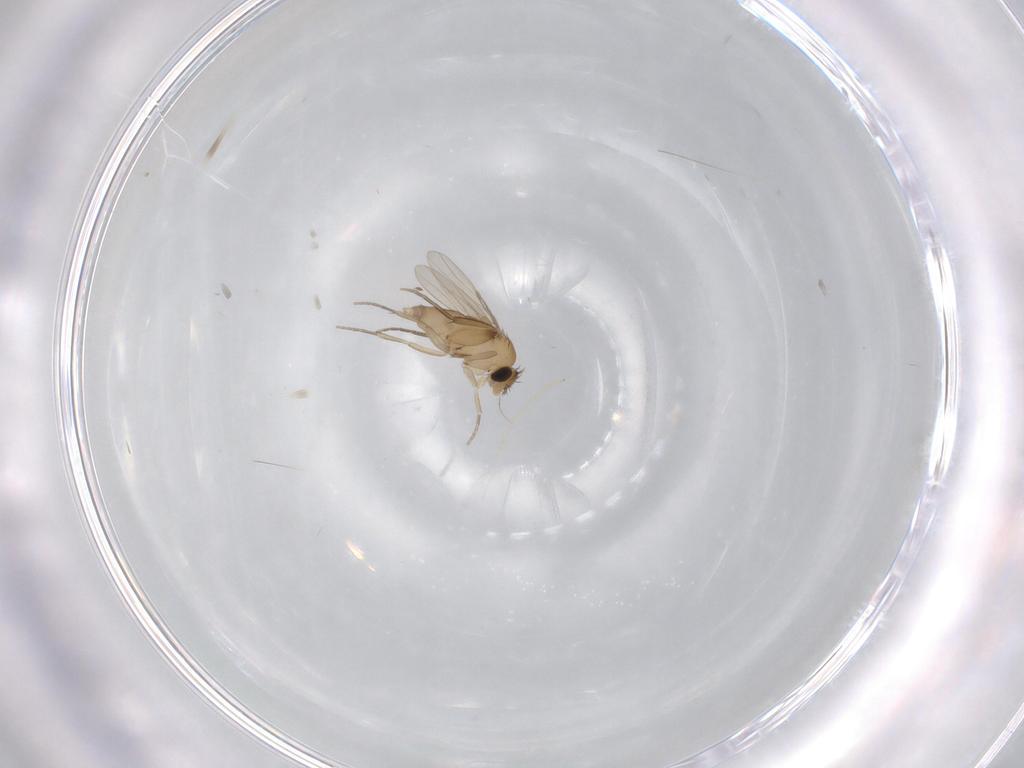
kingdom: Animalia
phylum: Arthropoda
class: Insecta
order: Diptera
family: Phoridae
